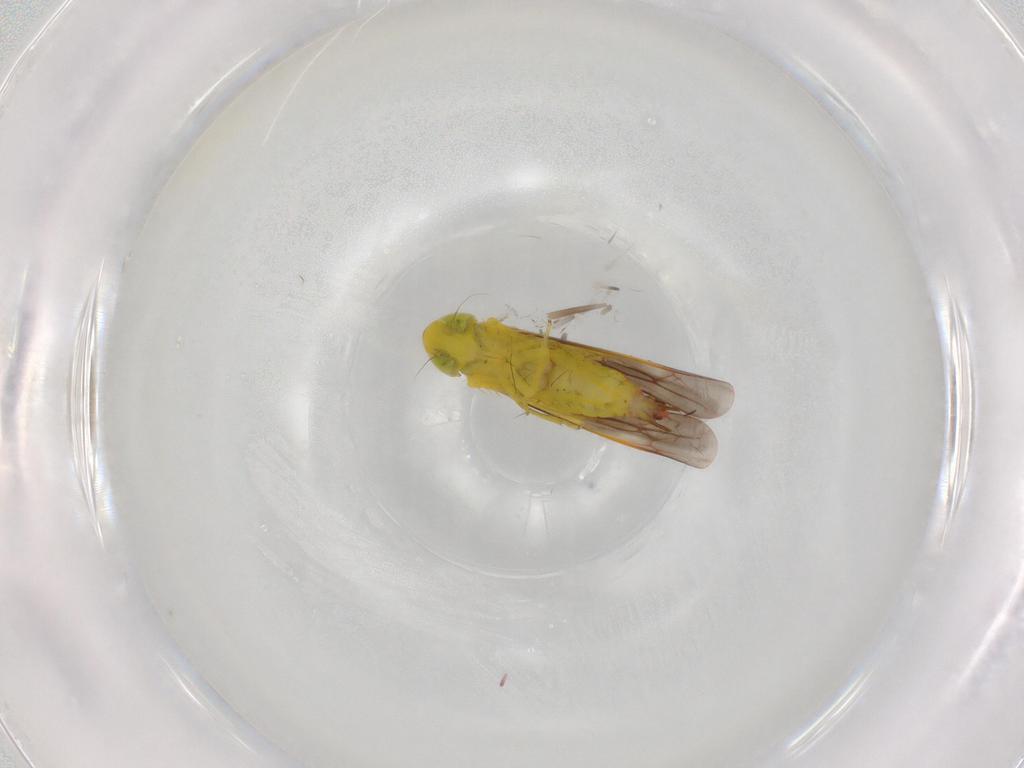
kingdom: Animalia
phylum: Arthropoda
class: Insecta
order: Hemiptera
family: Cicadellidae
